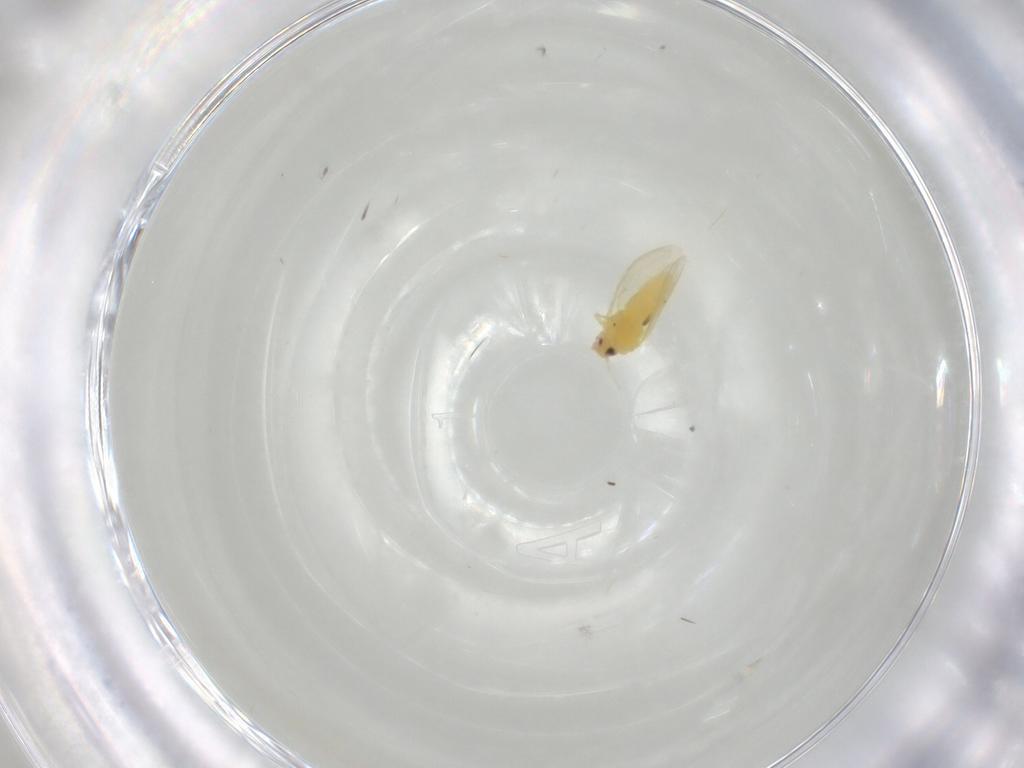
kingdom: Animalia
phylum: Arthropoda
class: Insecta
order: Hemiptera
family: Aleyrodidae
